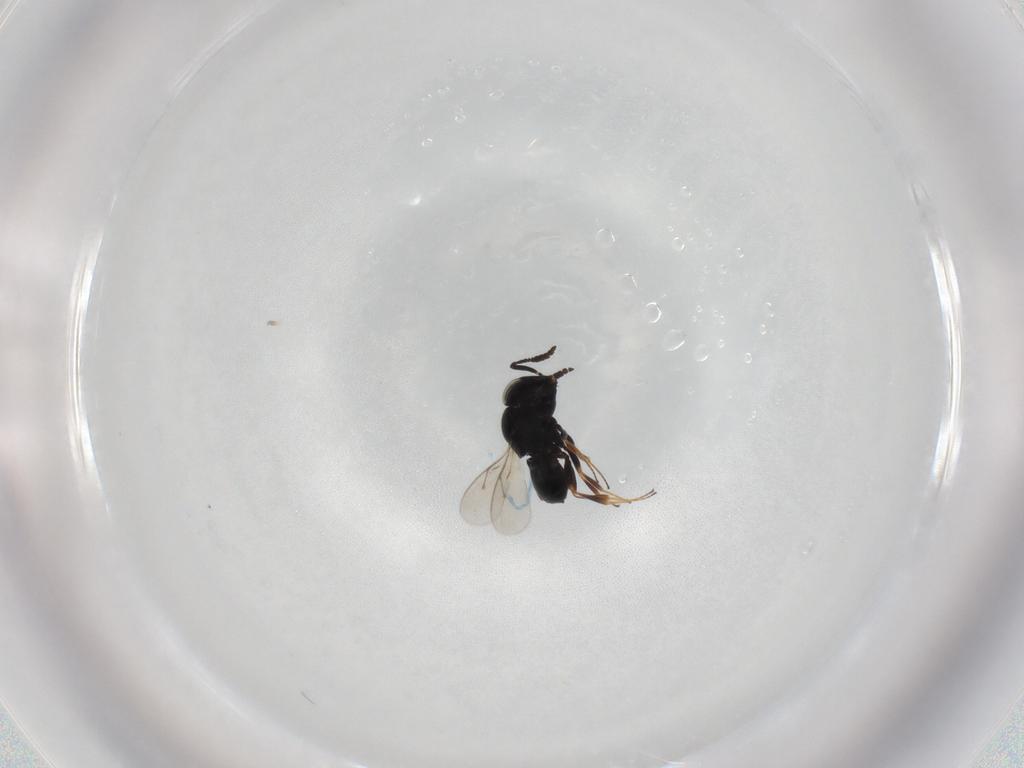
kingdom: Animalia
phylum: Arthropoda
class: Insecta
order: Hymenoptera
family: Scelionidae
